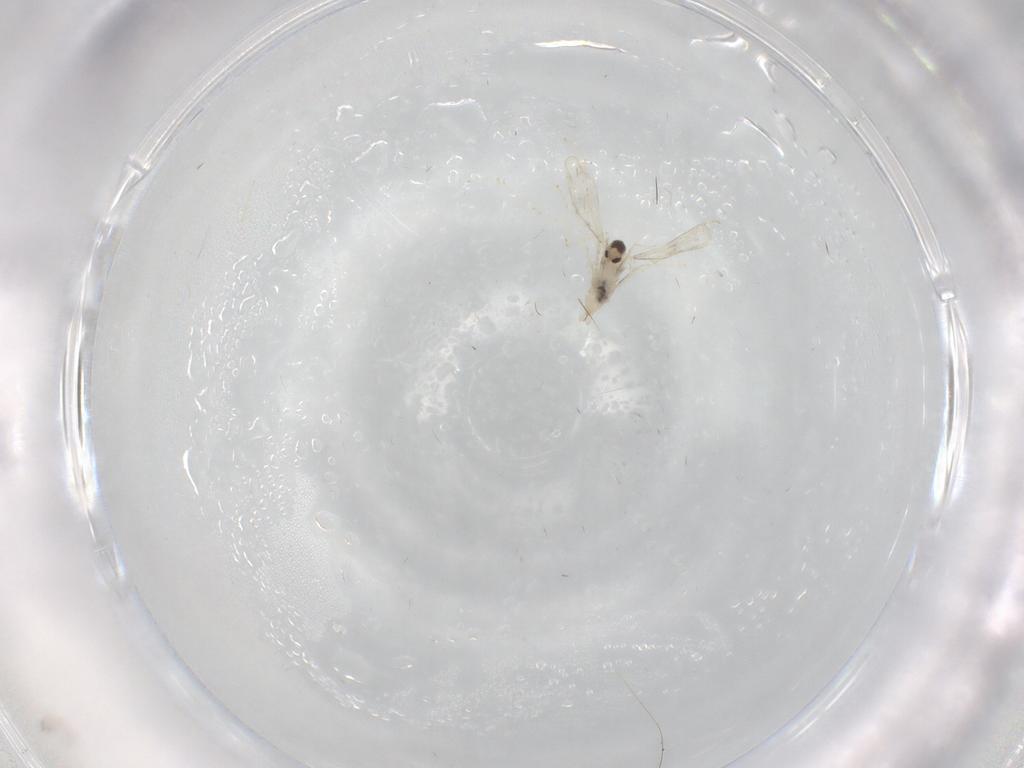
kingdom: Animalia
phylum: Arthropoda
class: Insecta
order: Diptera
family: Cecidomyiidae
